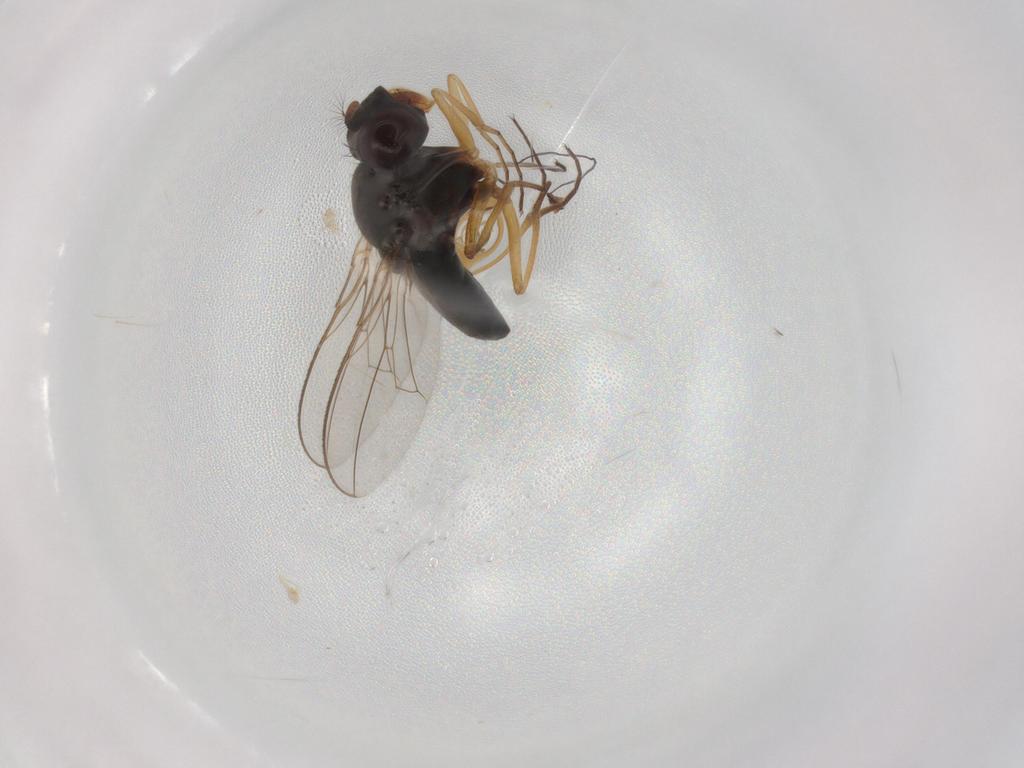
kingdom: Animalia
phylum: Arthropoda
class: Insecta
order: Diptera
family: Ephydridae
